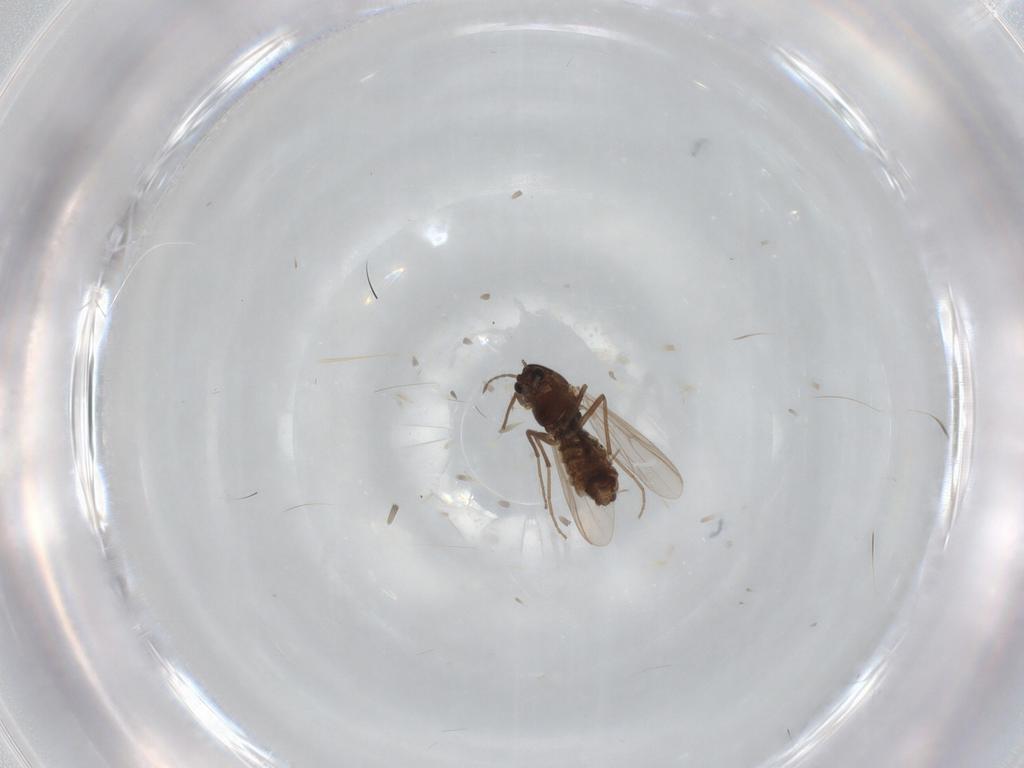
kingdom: Animalia
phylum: Arthropoda
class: Insecta
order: Diptera
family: Chironomidae
